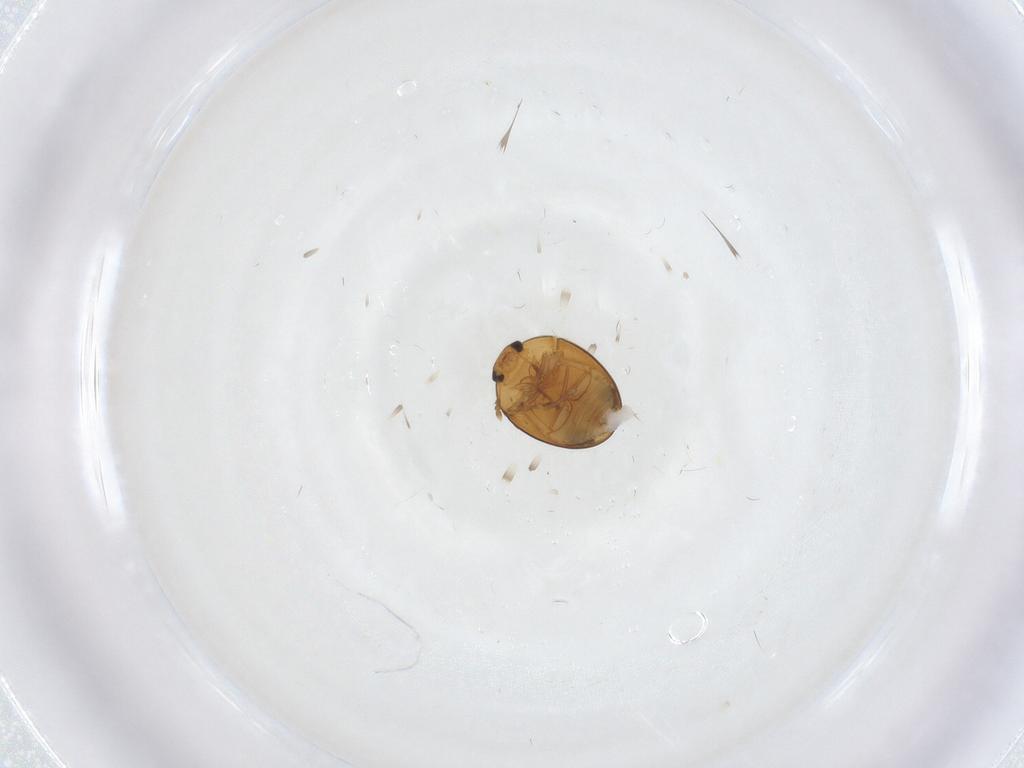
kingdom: Animalia
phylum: Arthropoda
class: Insecta
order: Coleoptera
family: Phalacridae
